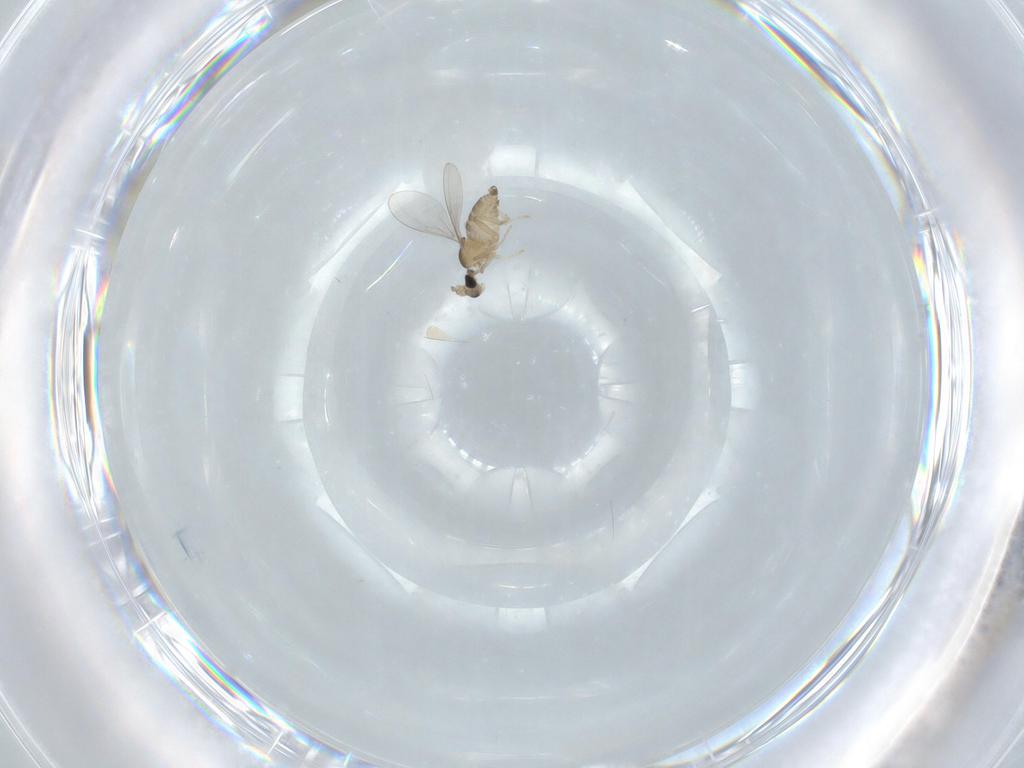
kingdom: Animalia
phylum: Arthropoda
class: Insecta
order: Diptera
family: Cecidomyiidae
